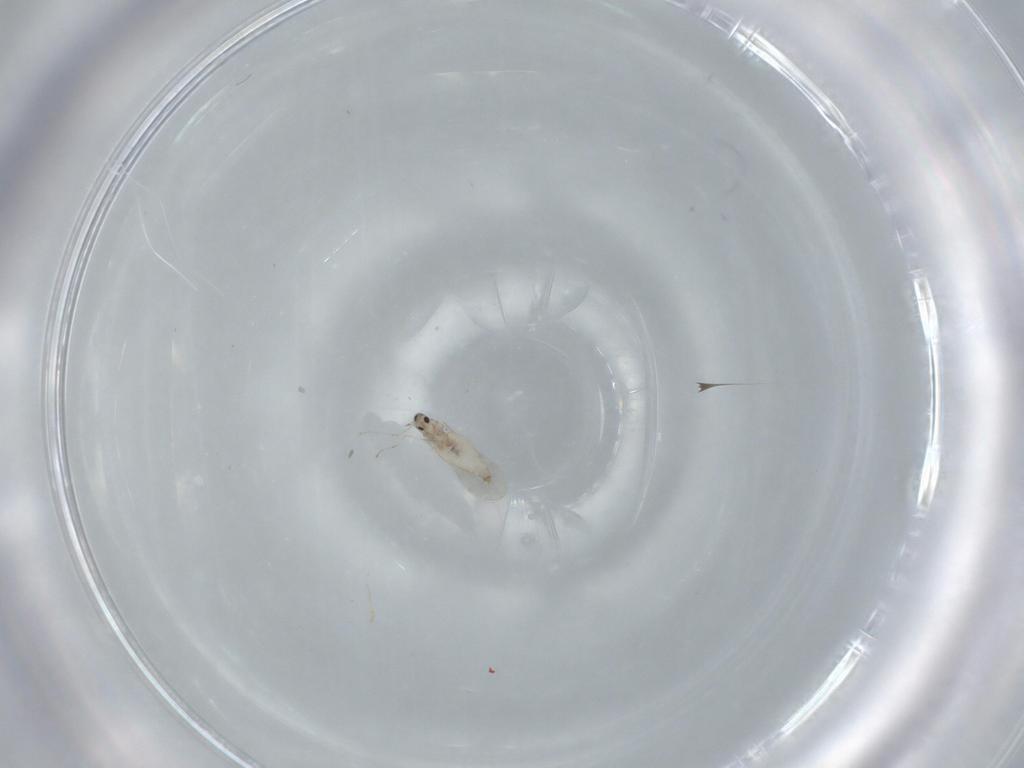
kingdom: Animalia
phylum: Arthropoda
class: Insecta
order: Diptera
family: Cecidomyiidae
